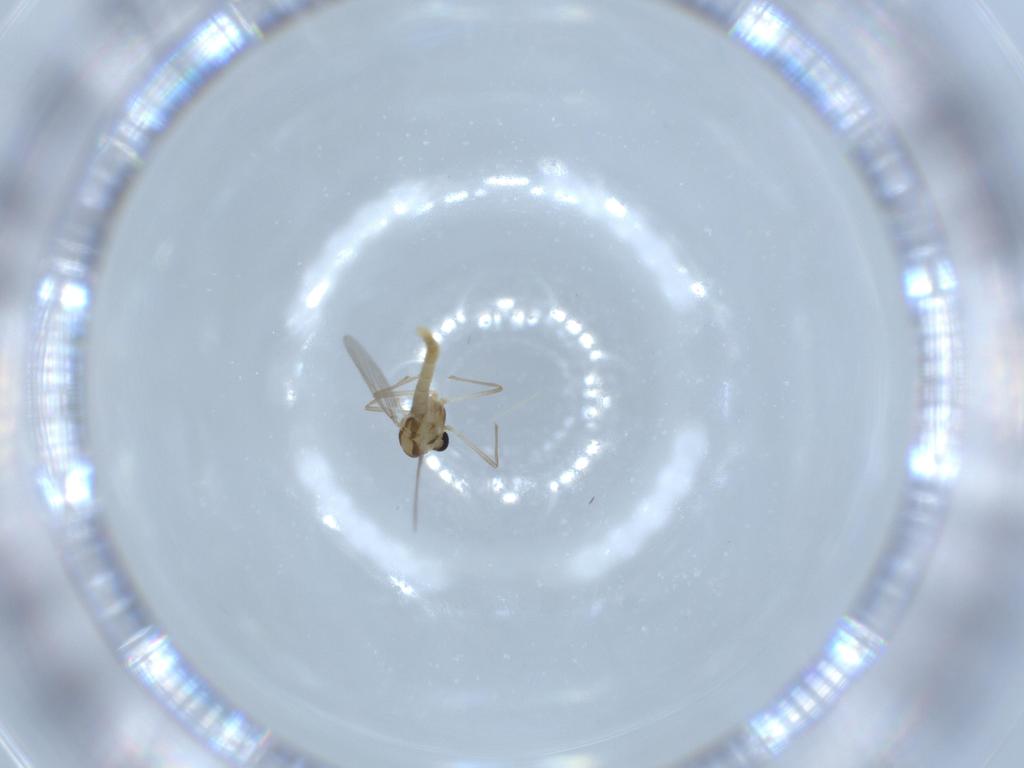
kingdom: Animalia
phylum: Arthropoda
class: Insecta
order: Diptera
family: Chironomidae
